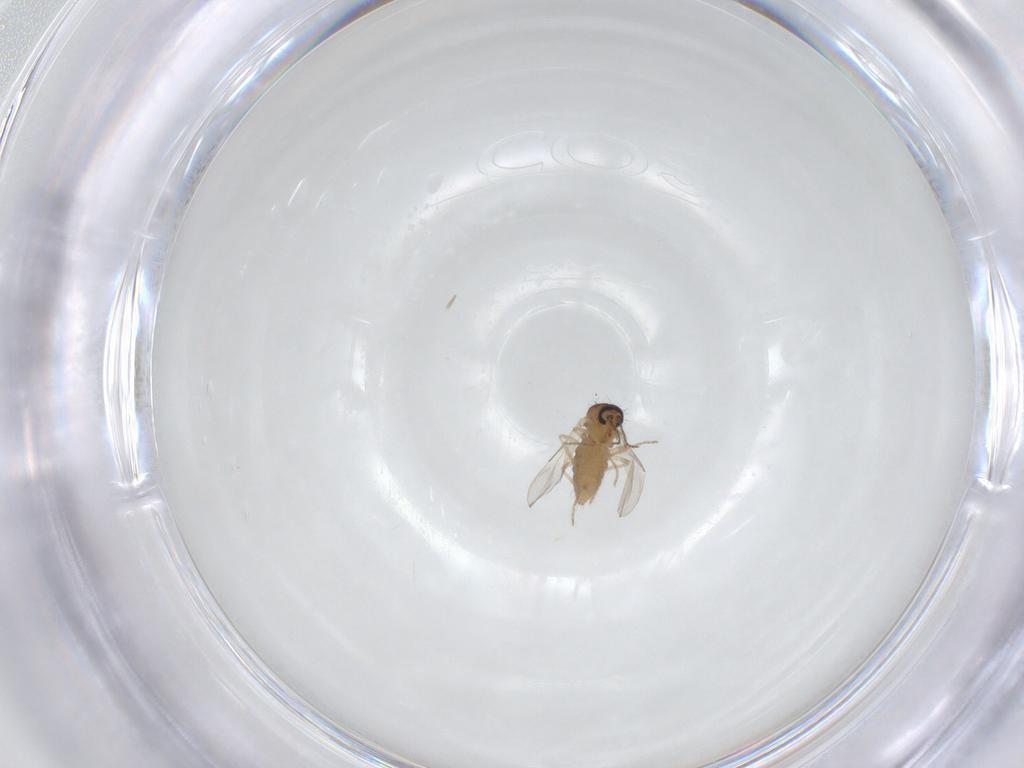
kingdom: Animalia
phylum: Arthropoda
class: Insecta
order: Diptera
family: Ceratopogonidae
